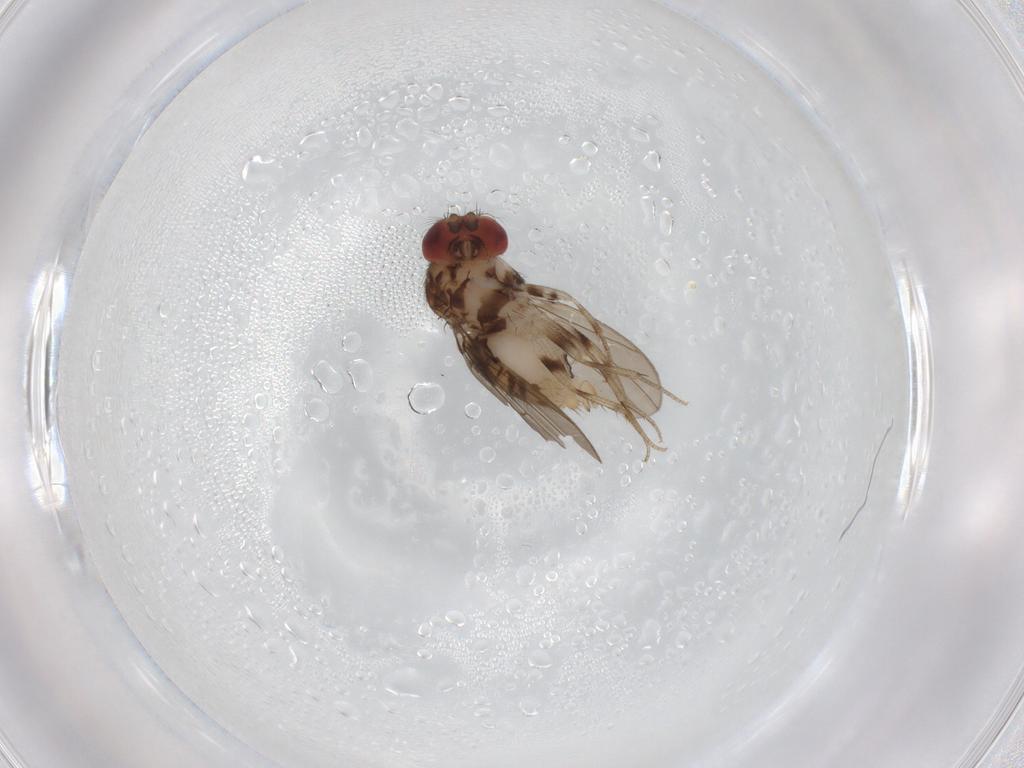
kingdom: Animalia
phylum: Arthropoda
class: Insecta
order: Diptera
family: Drosophilidae
